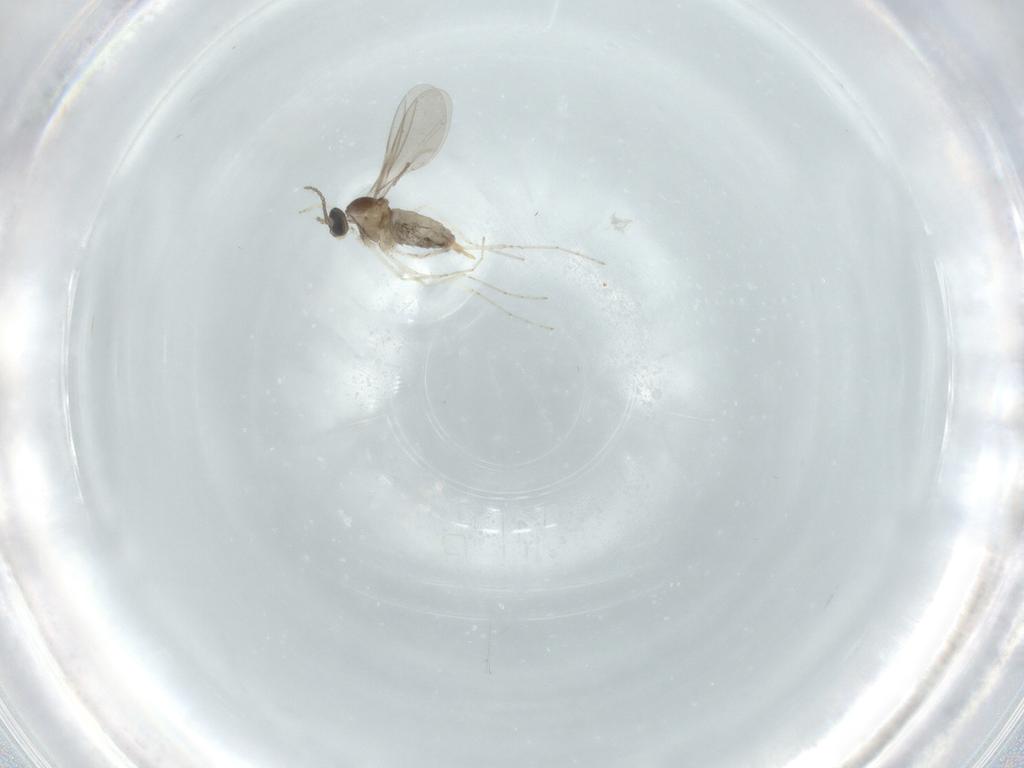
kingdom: Animalia
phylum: Arthropoda
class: Insecta
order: Diptera
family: Cecidomyiidae
